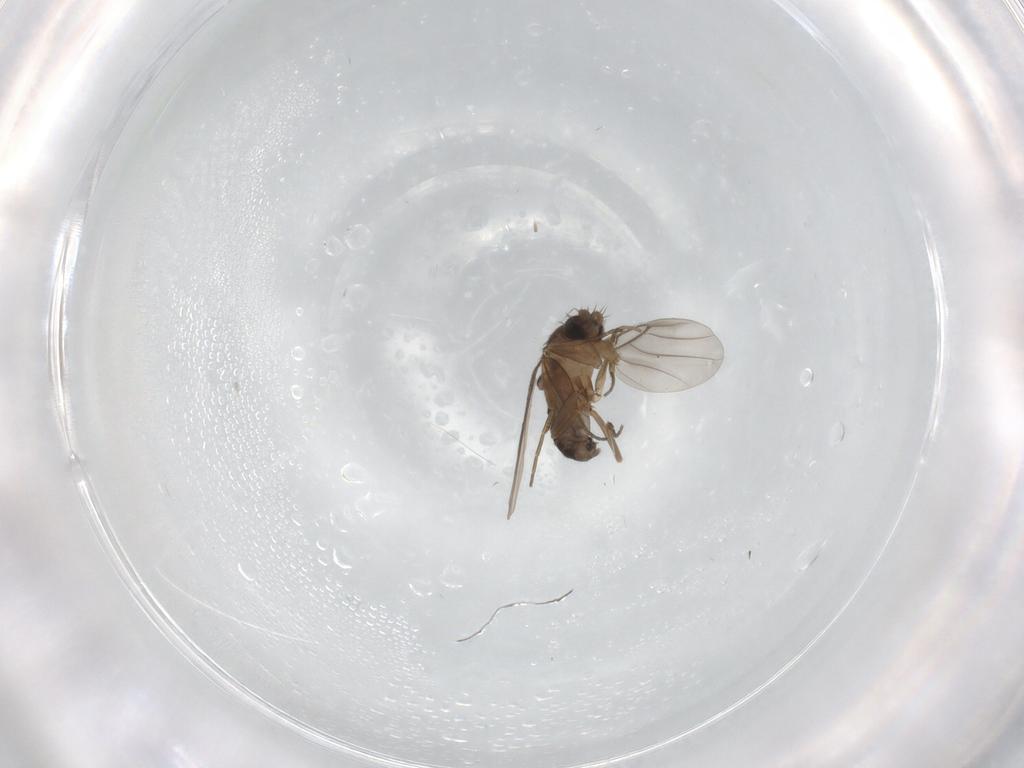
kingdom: Animalia
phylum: Arthropoda
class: Insecta
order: Diptera
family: Cecidomyiidae
